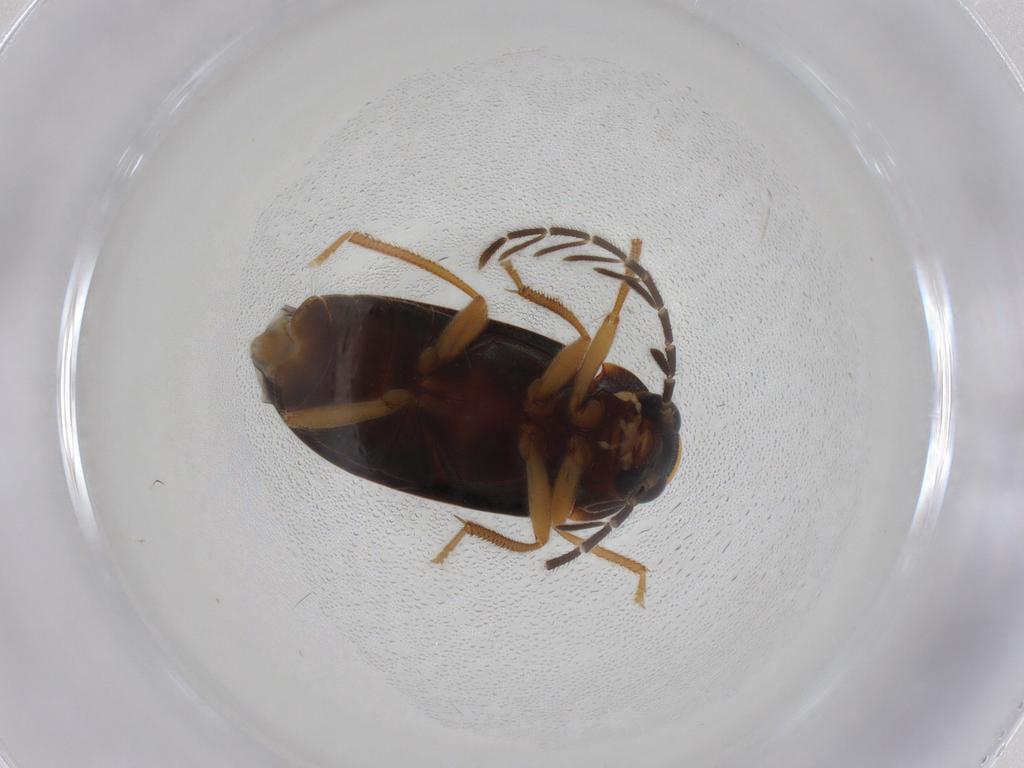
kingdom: Animalia
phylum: Arthropoda
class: Insecta
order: Coleoptera
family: Ptilodactylidae
